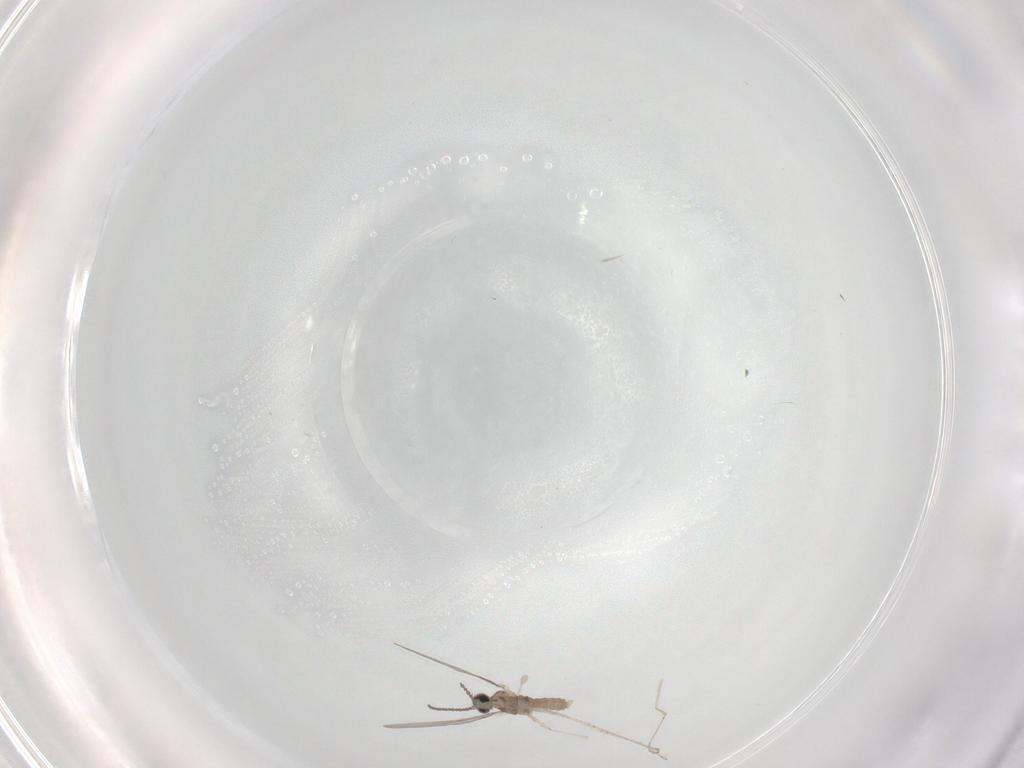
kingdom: Animalia
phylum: Arthropoda
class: Insecta
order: Diptera
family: Cecidomyiidae
